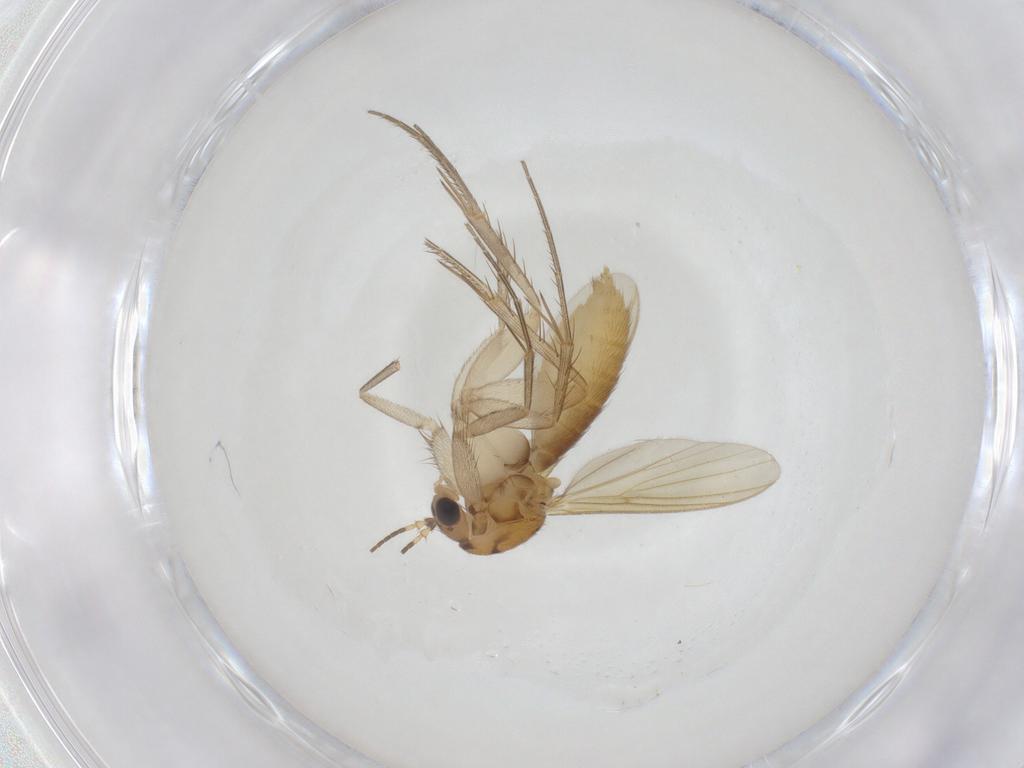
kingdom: Animalia
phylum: Arthropoda
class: Insecta
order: Diptera
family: Mycetophilidae
